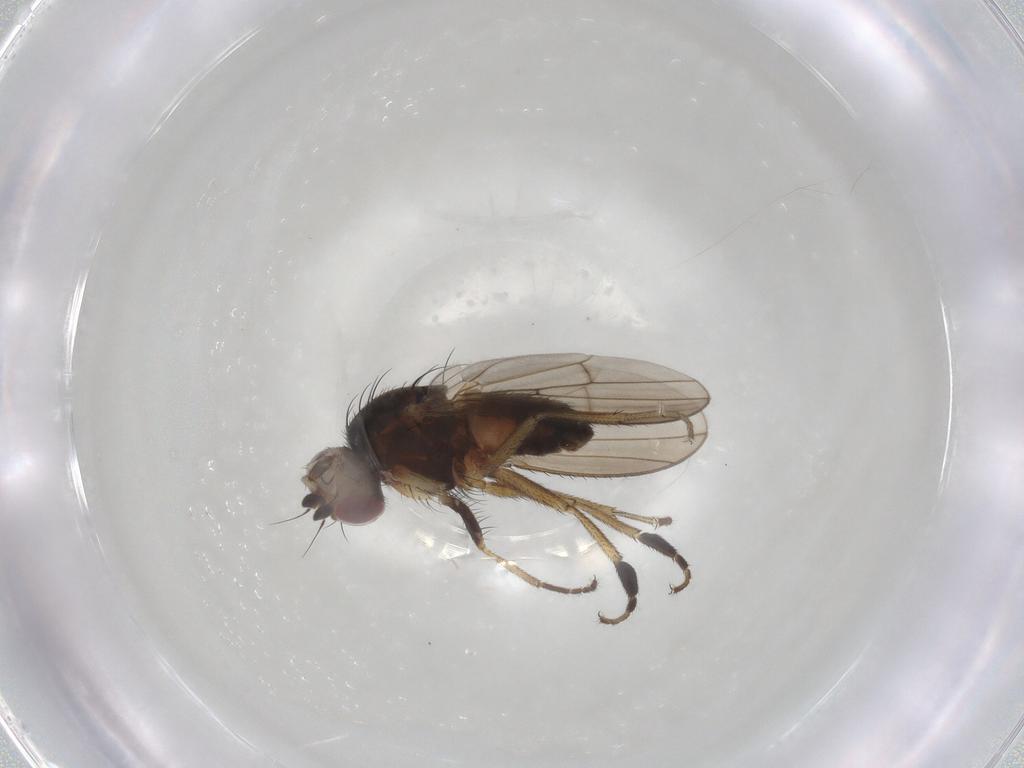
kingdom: Animalia
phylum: Arthropoda
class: Insecta
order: Diptera
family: Heleomyzidae
